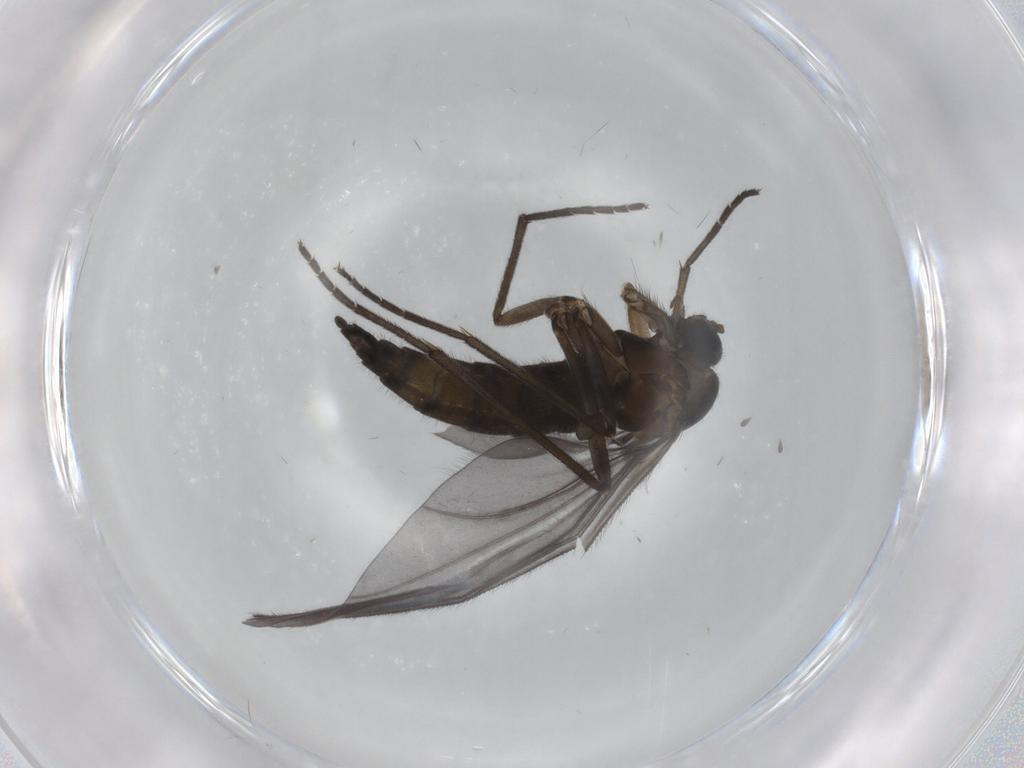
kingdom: Animalia
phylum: Arthropoda
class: Insecta
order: Diptera
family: Sciaridae
